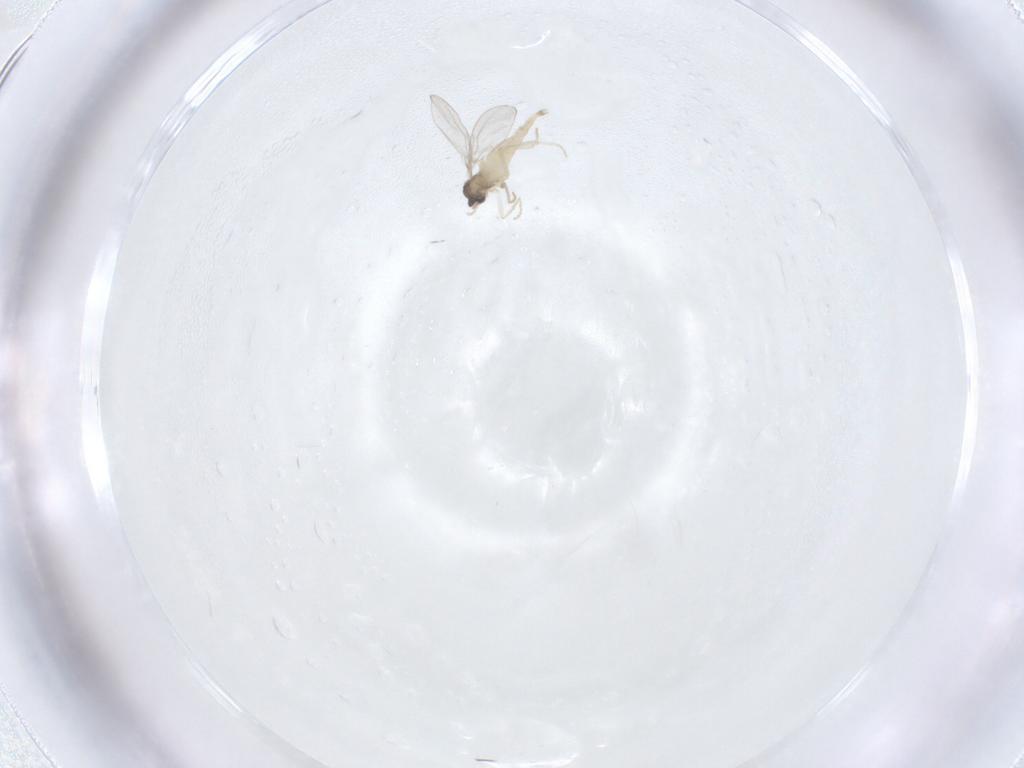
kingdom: Animalia
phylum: Arthropoda
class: Insecta
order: Diptera
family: Cecidomyiidae
